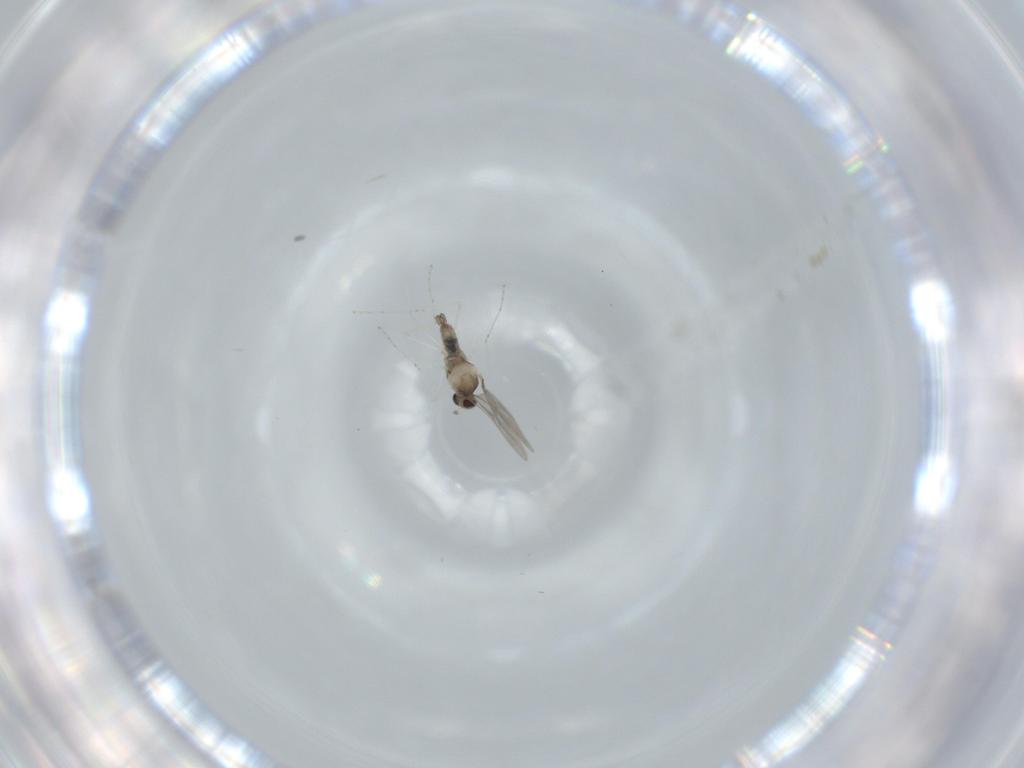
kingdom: Animalia
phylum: Arthropoda
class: Insecta
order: Diptera
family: Cecidomyiidae
